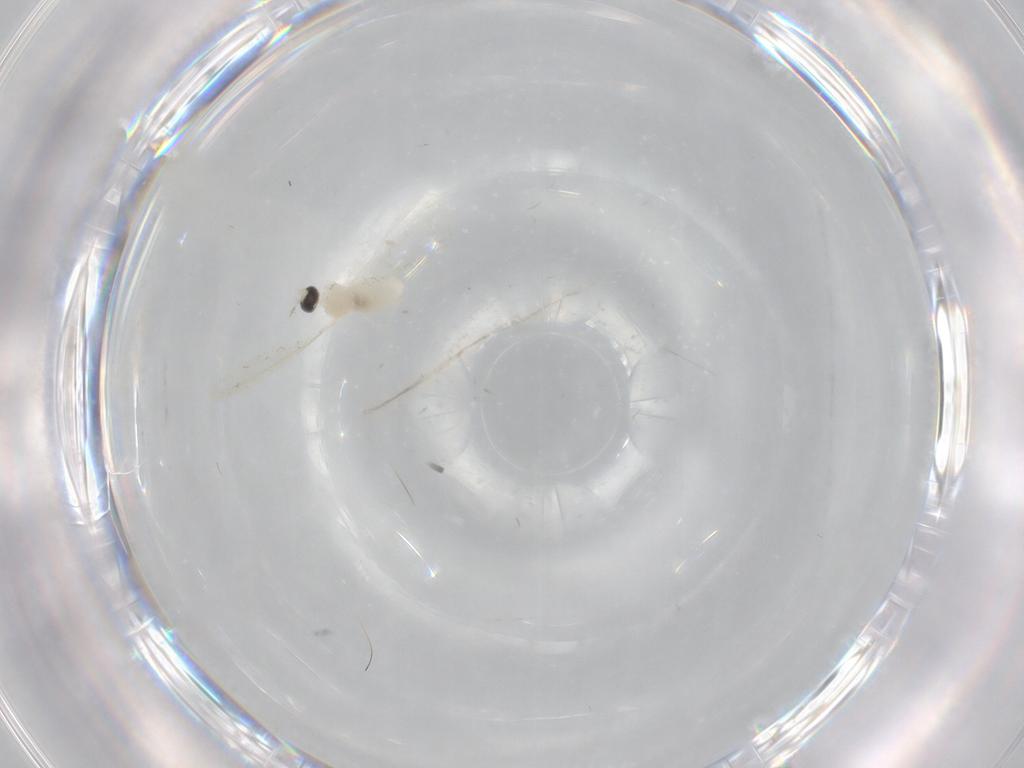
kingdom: Animalia
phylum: Arthropoda
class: Insecta
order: Diptera
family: Cecidomyiidae
